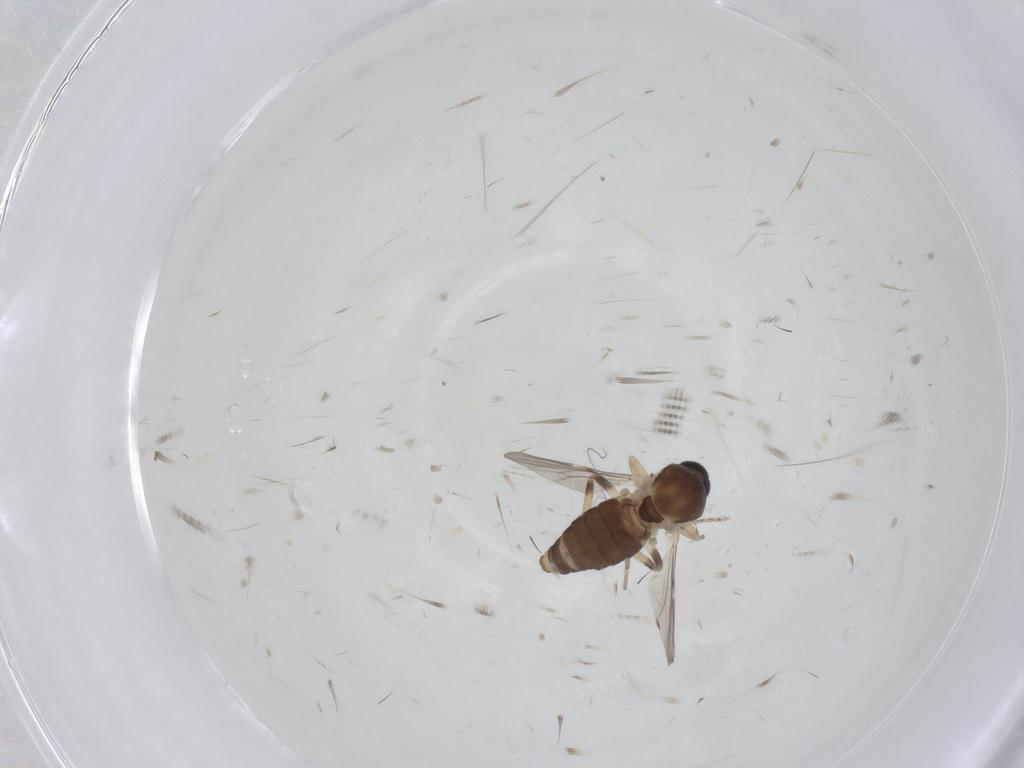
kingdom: Animalia
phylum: Arthropoda
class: Insecta
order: Diptera
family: Ceratopogonidae
